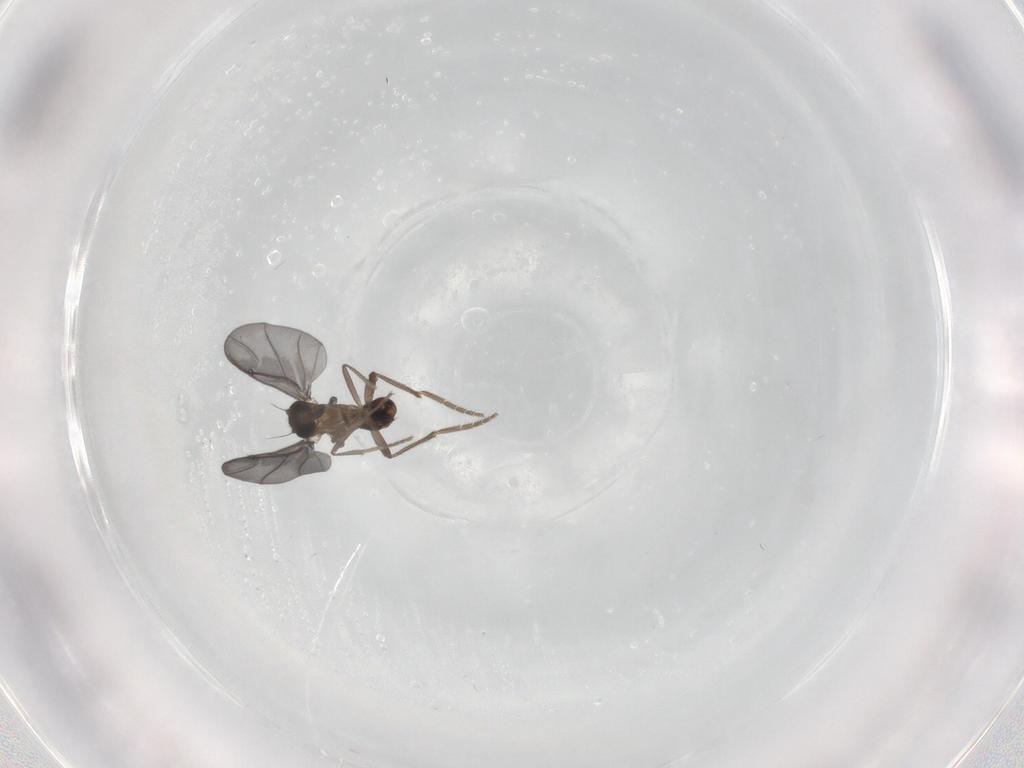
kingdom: Animalia
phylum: Arthropoda
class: Insecta
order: Diptera
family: Phoridae
